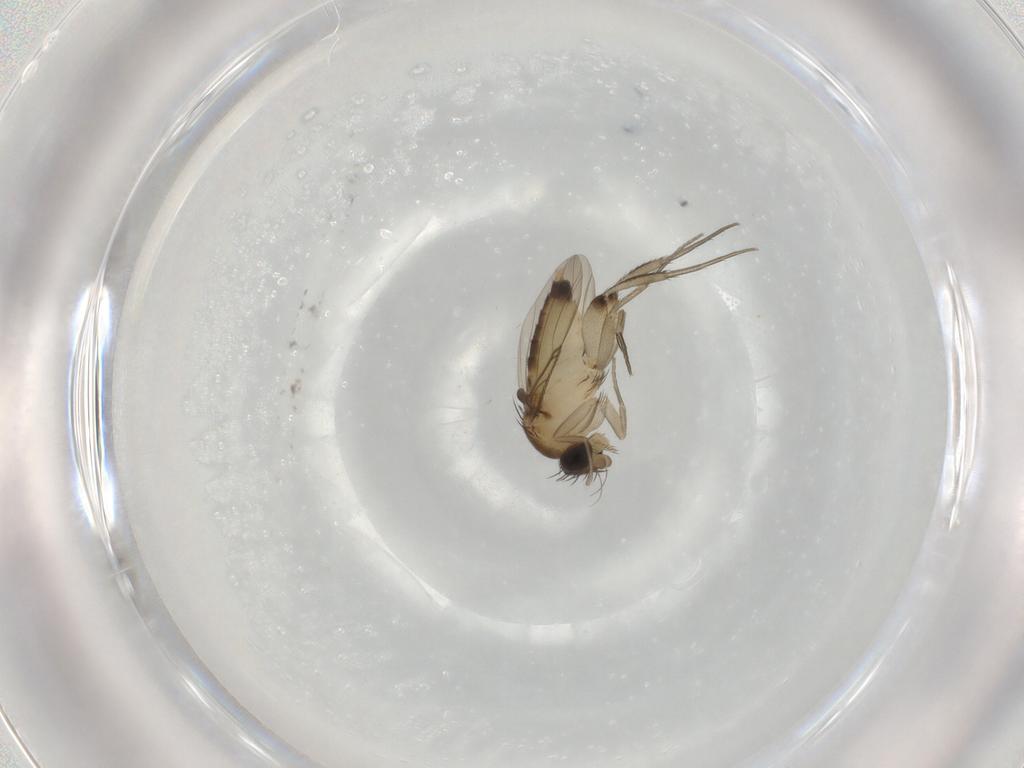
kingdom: Animalia
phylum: Arthropoda
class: Insecta
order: Diptera
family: Phoridae
